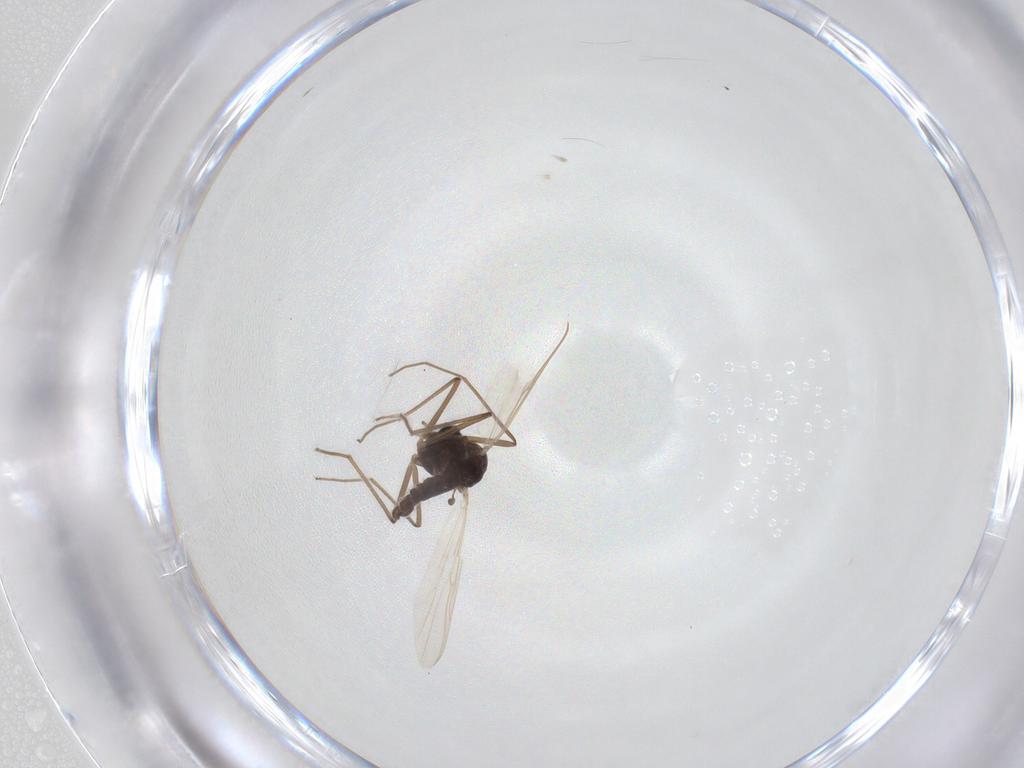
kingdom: Animalia
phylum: Arthropoda
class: Insecta
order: Diptera
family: Chironomidae
